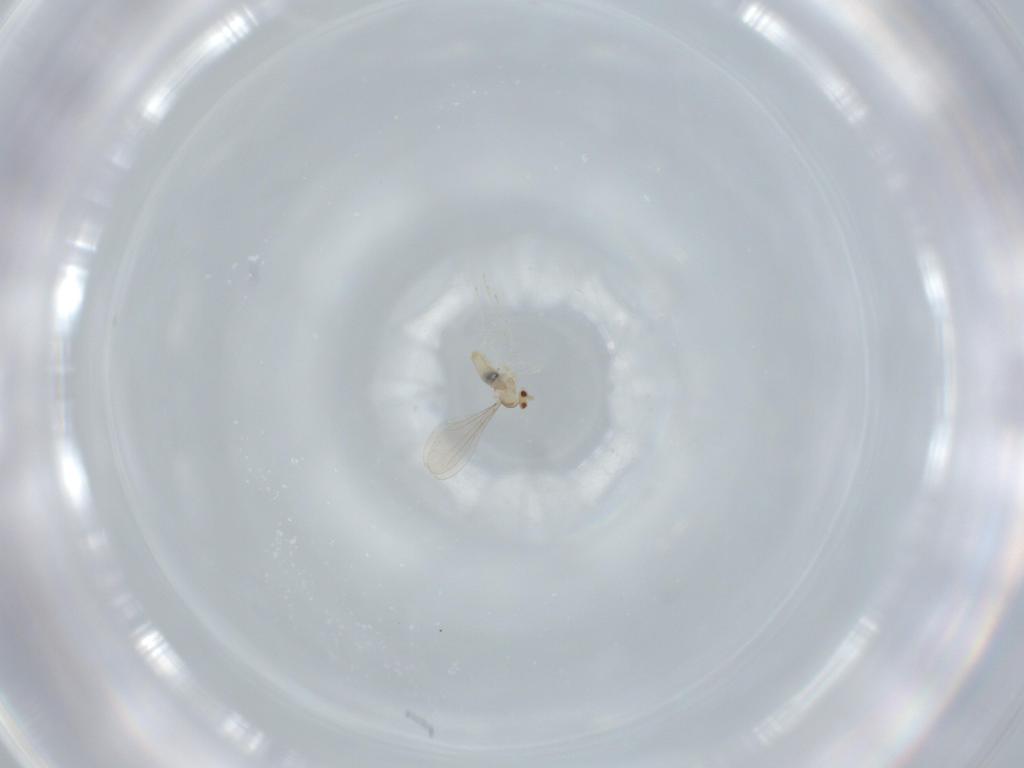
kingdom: Animalia
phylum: Arthropoda
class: Insecta
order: Diptera
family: Cecidomyiidae
